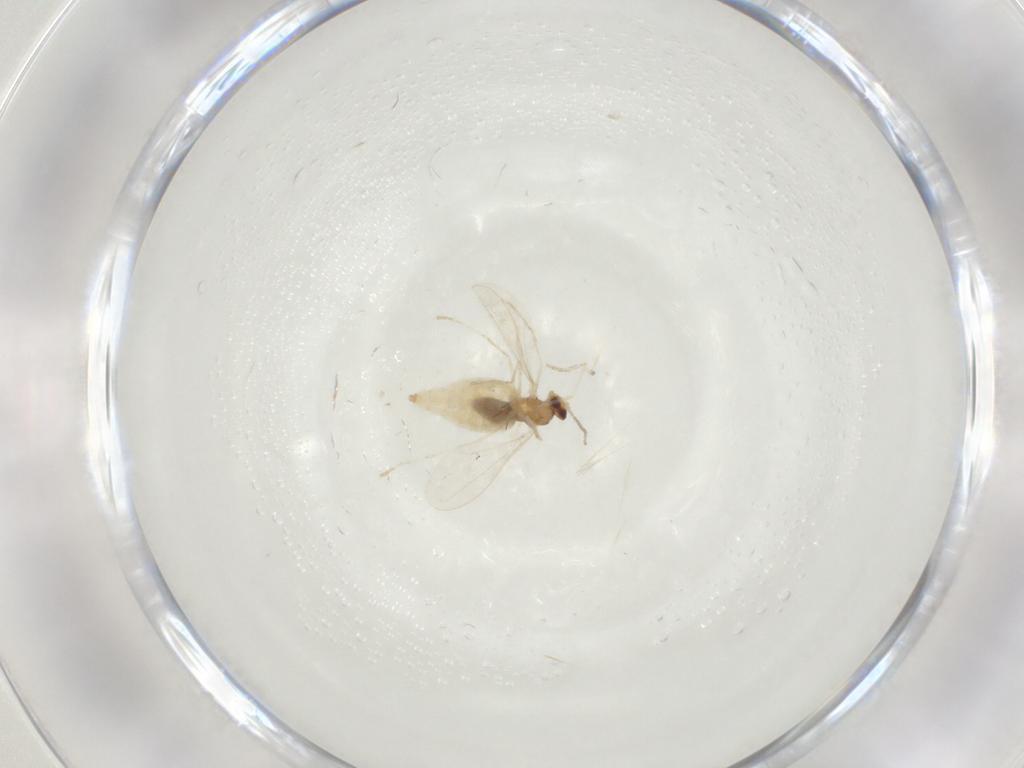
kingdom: Animalia
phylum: Arthropoda
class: Insecta
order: Diptera
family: Cecidomyiidae
